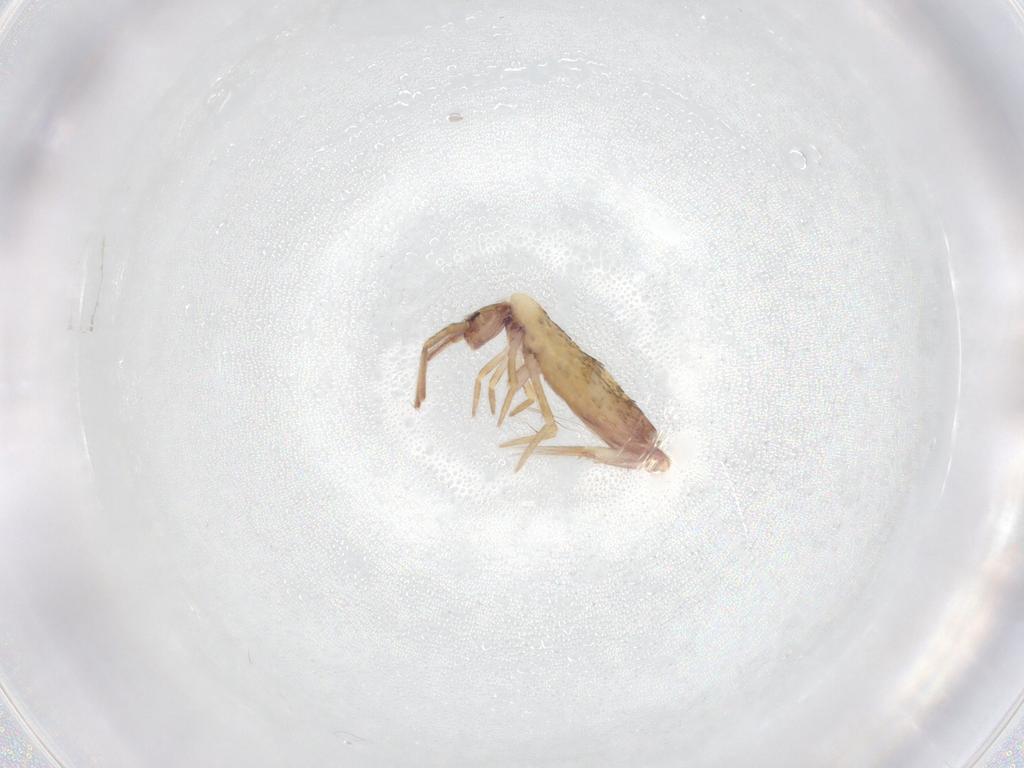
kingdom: Animalia
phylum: Arthropoda
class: Collembola
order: Entomobryomorpha
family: Entomobryidae
